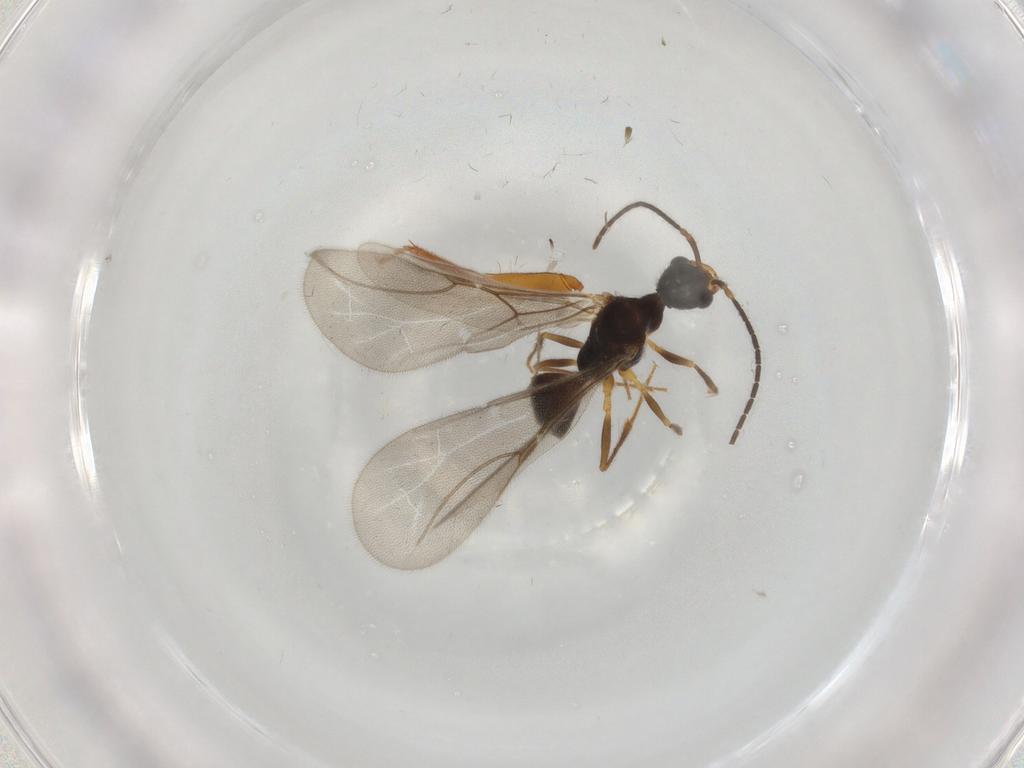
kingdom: Animalia
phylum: Arthropoda
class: Insecta
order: Hymenoptera
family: Bethylidae
